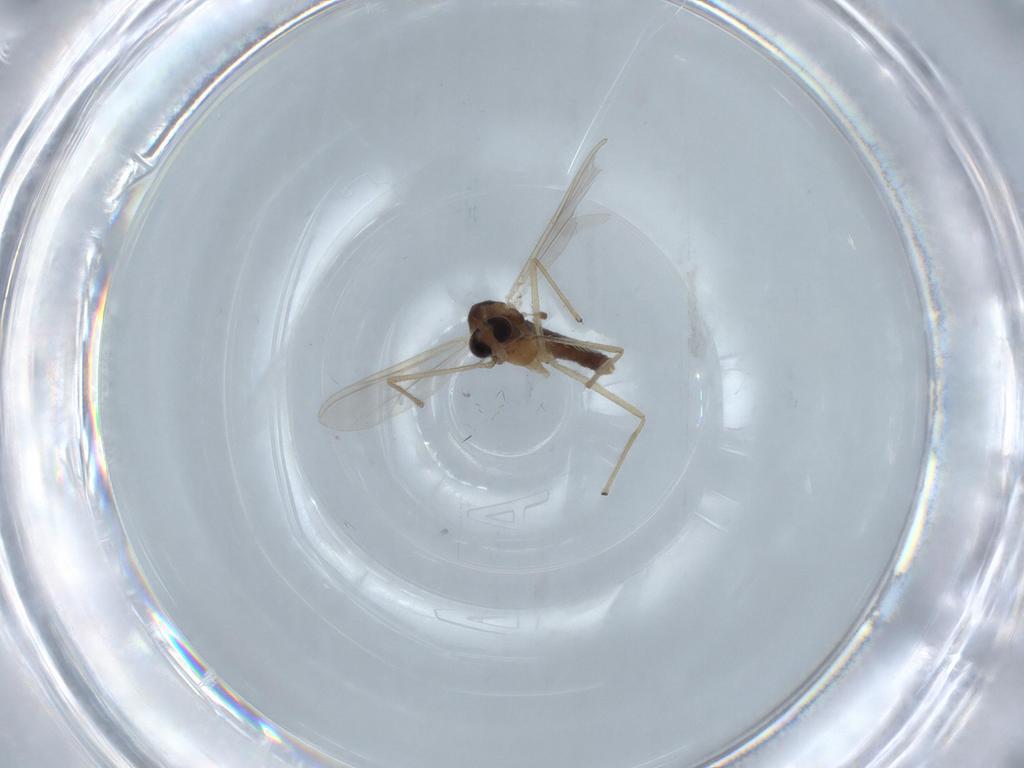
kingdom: Animalia
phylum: Arthropoda
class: Insecta
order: Diptera
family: Chironomidae
